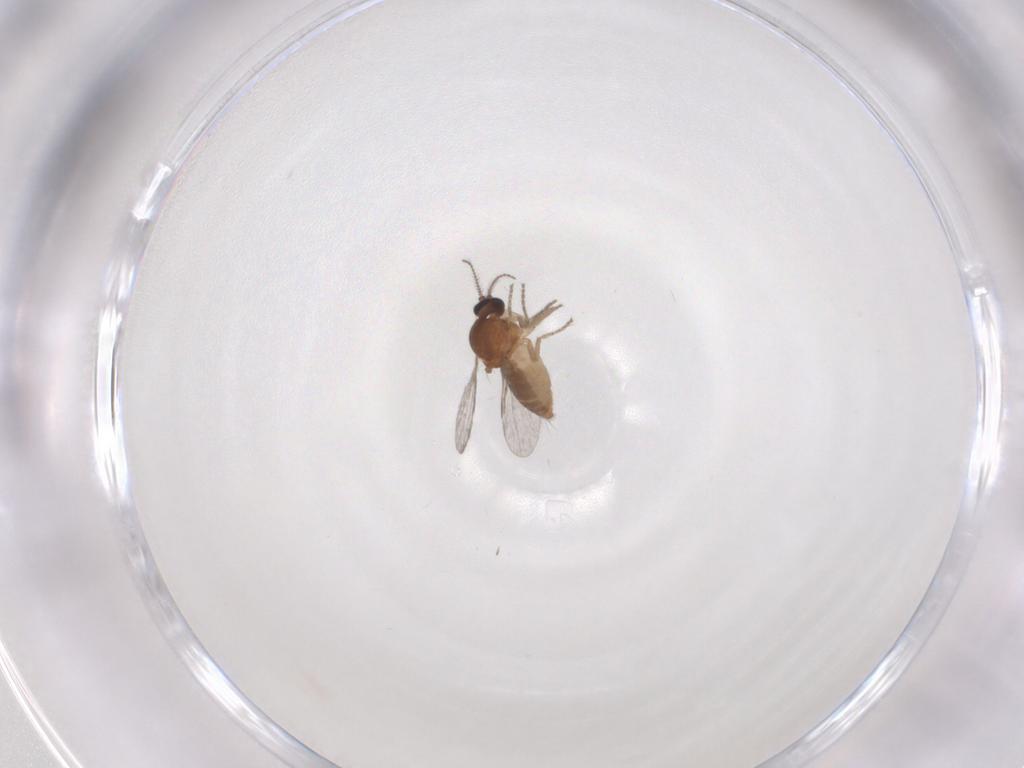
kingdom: Animalia
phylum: Arthropoda
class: Insecta
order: Diptera
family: Ceratopogonidae
